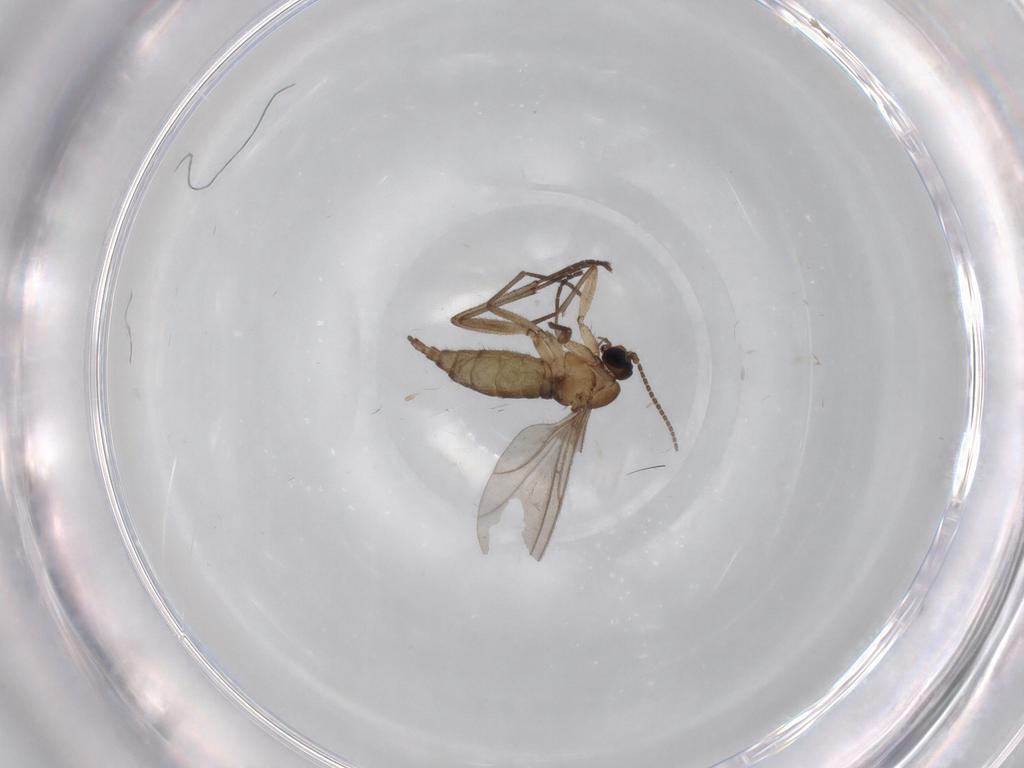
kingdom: Animalia
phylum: Arthropoda
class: Insecta
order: Diptera
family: Sciaridae
